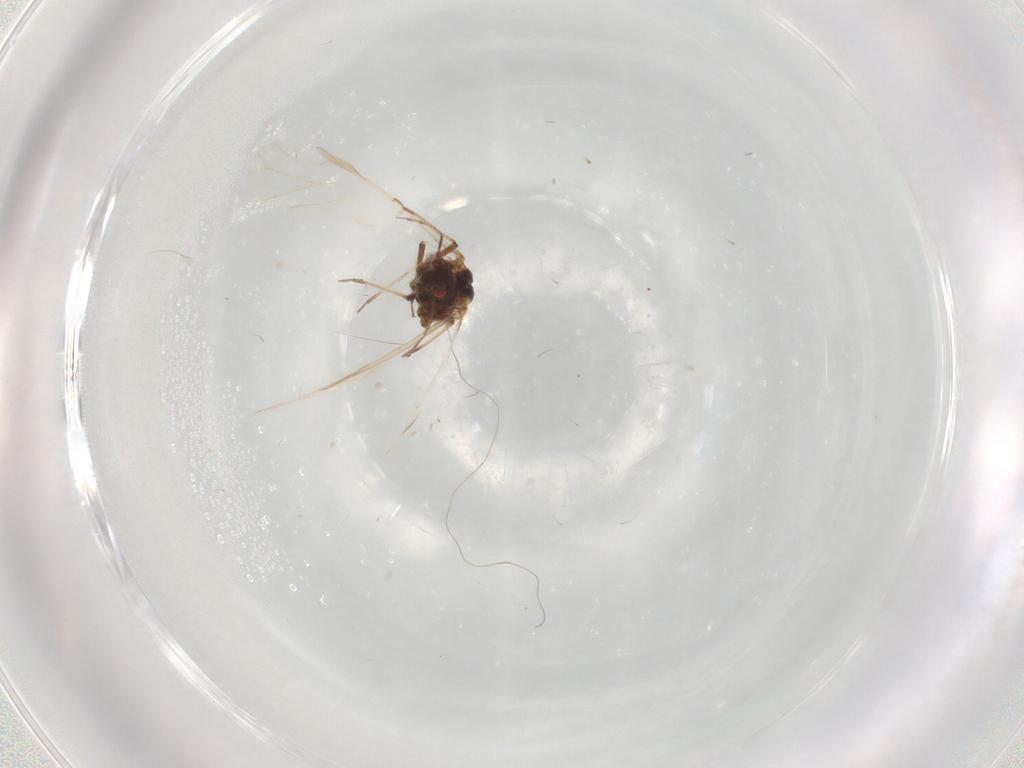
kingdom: Animalia
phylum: Arthropoda
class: Insecta
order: Hemiptera
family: Aphididae
